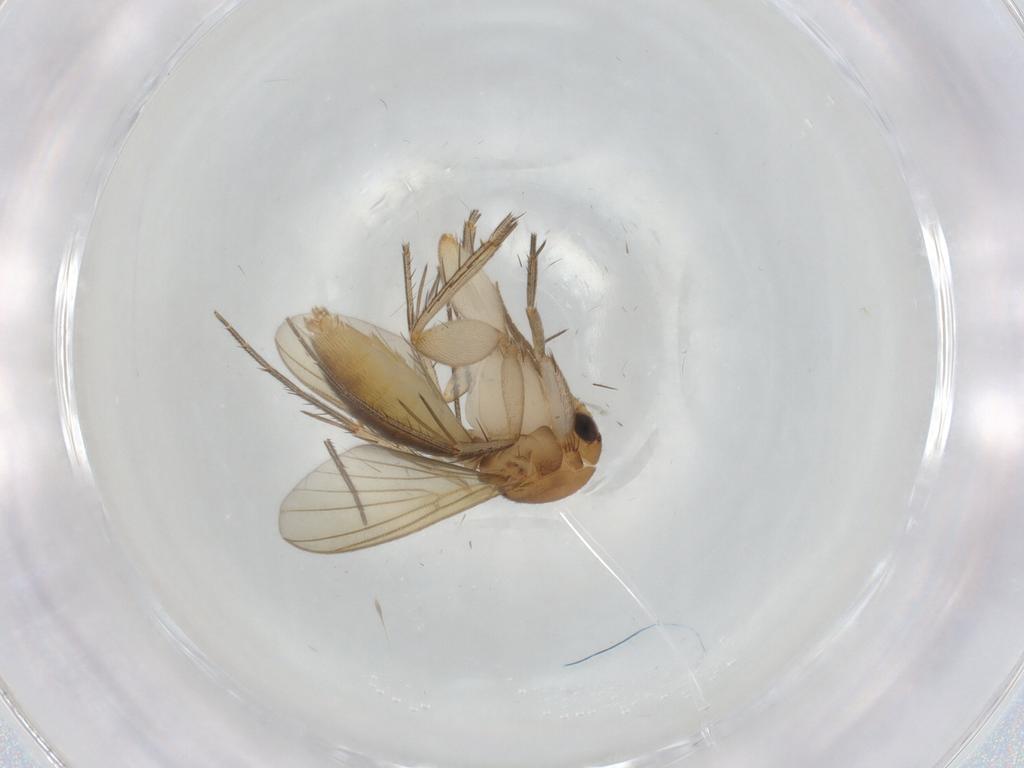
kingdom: Animalia
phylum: Arthropoda
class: Insecta
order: Diptera
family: Mycetophilidae
